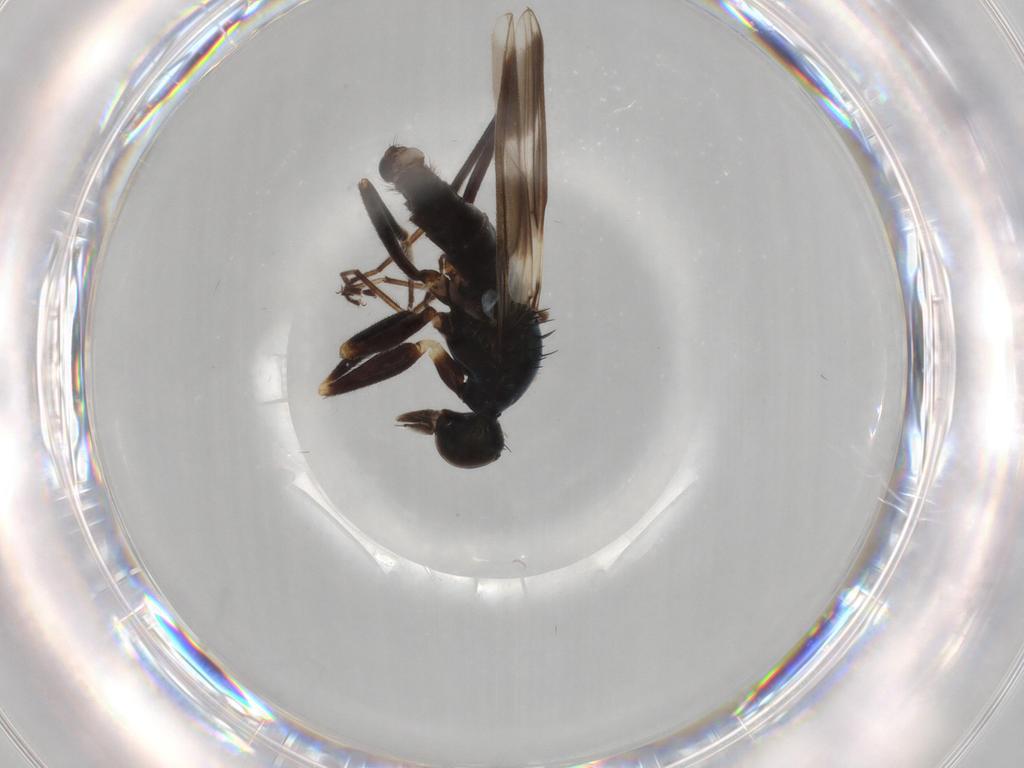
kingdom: Animalia
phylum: Arthropoda
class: Insecta
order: Diptera
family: Hybotidae
